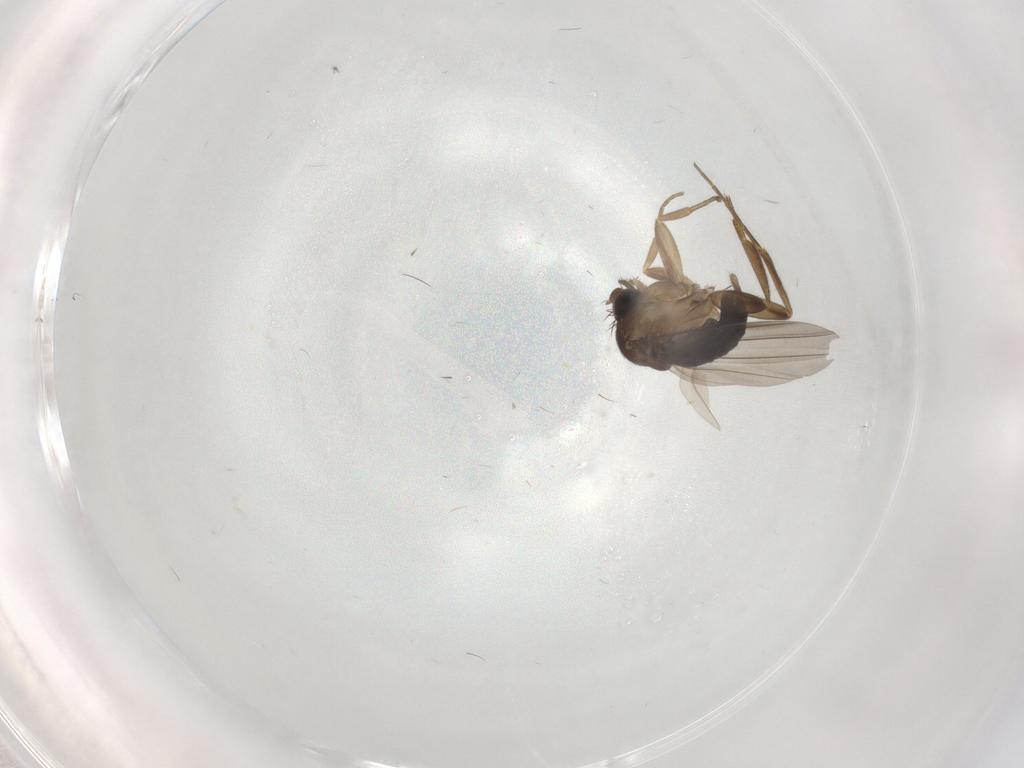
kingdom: Animalia
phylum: Arthropoda
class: Insecta
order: Diptera
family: Phoridae
